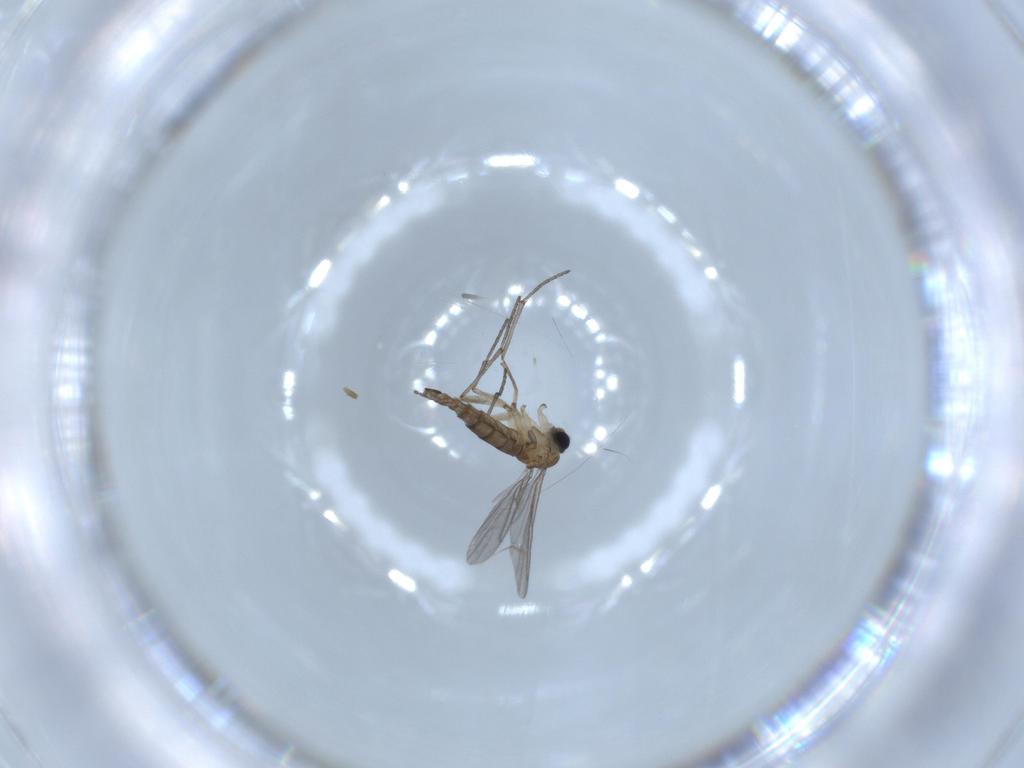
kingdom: Animalia
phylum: Arthropoda
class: Insecta
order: Diptera
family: Sciaridae
